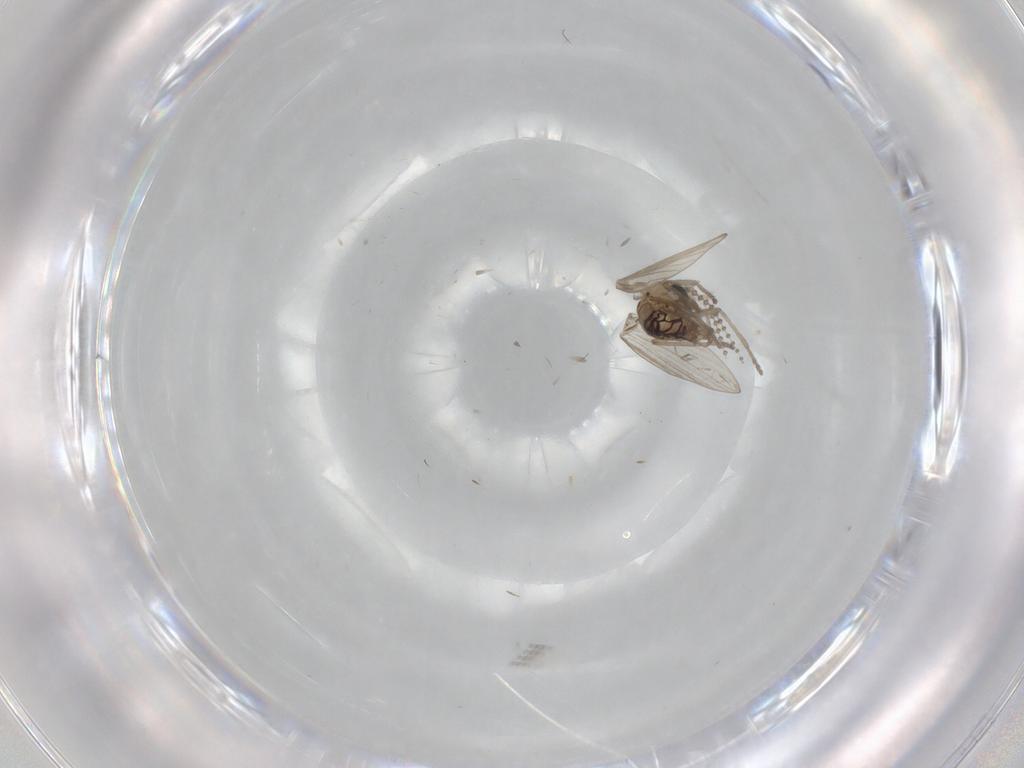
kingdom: Animalia
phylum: Arthropoda
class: Insecta
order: Diptera
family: Psychodidae
